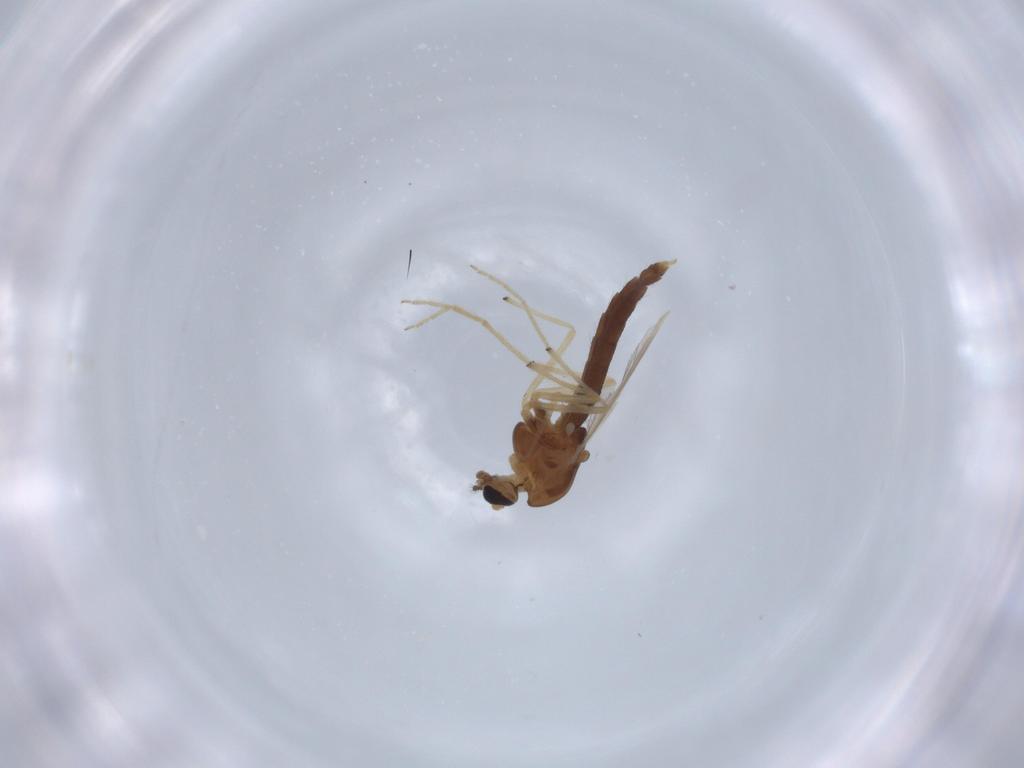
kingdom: Animalia
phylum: Arthropoda
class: Insecta
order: Diptera
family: Chironomidae
